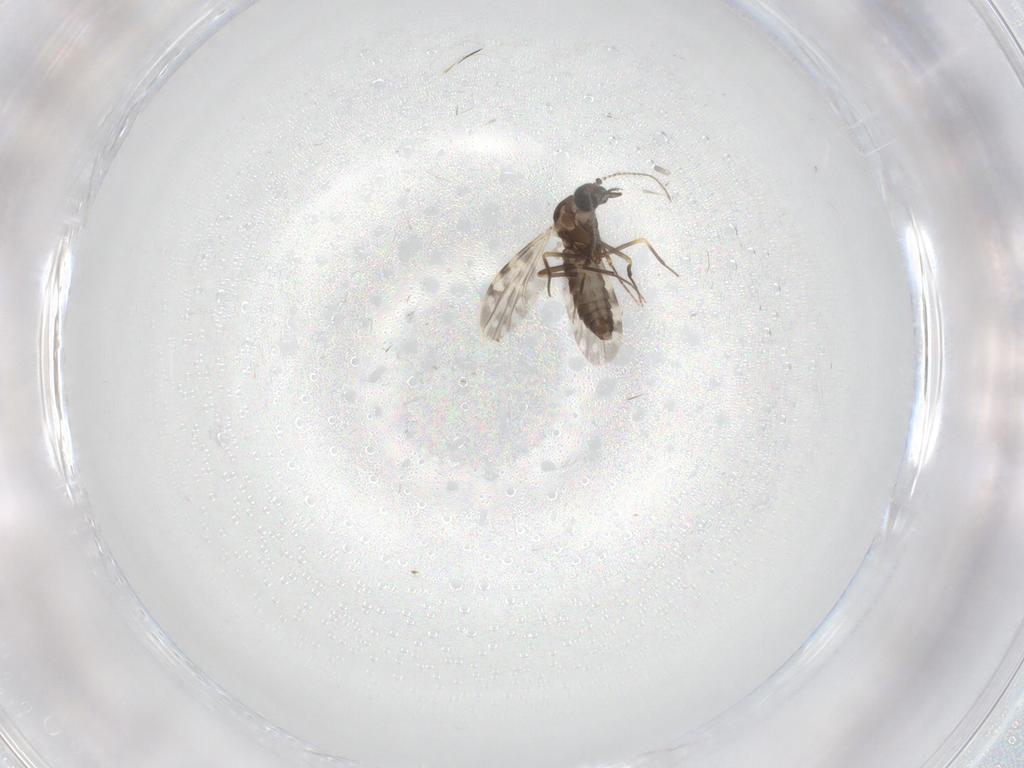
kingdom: Animalia
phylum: Arthropoda
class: Insecta
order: Diptera
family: Ceratopogonidae
